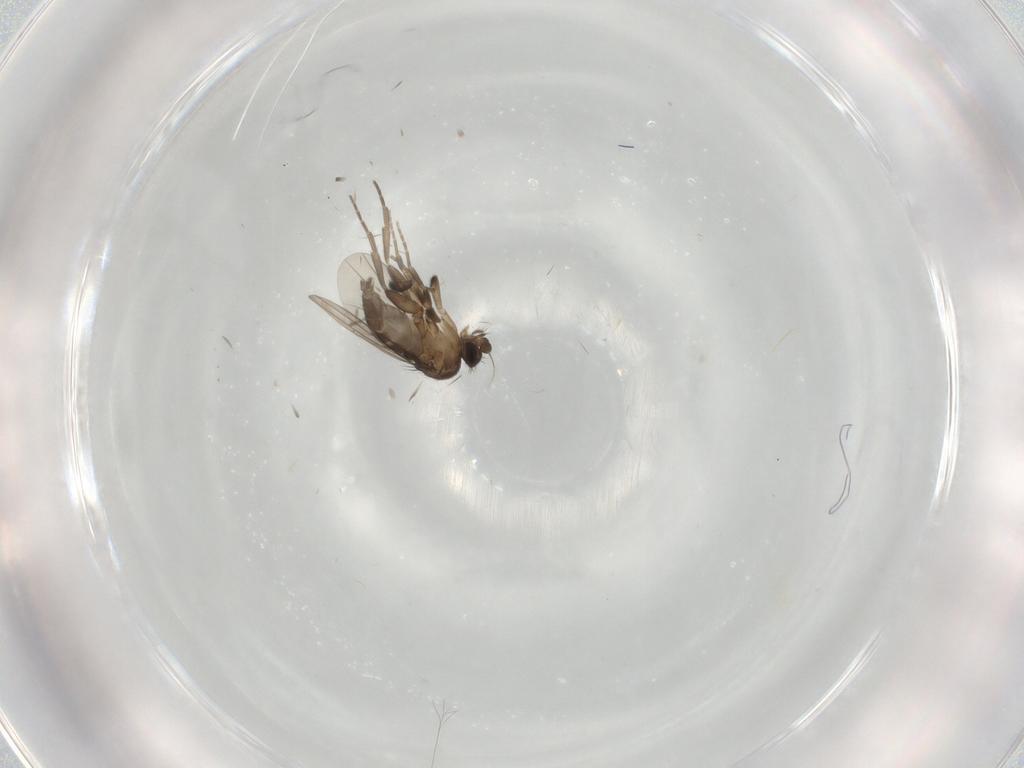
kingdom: Animalia
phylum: Arthropoda
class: Insecta
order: Diptera
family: Phoridae
